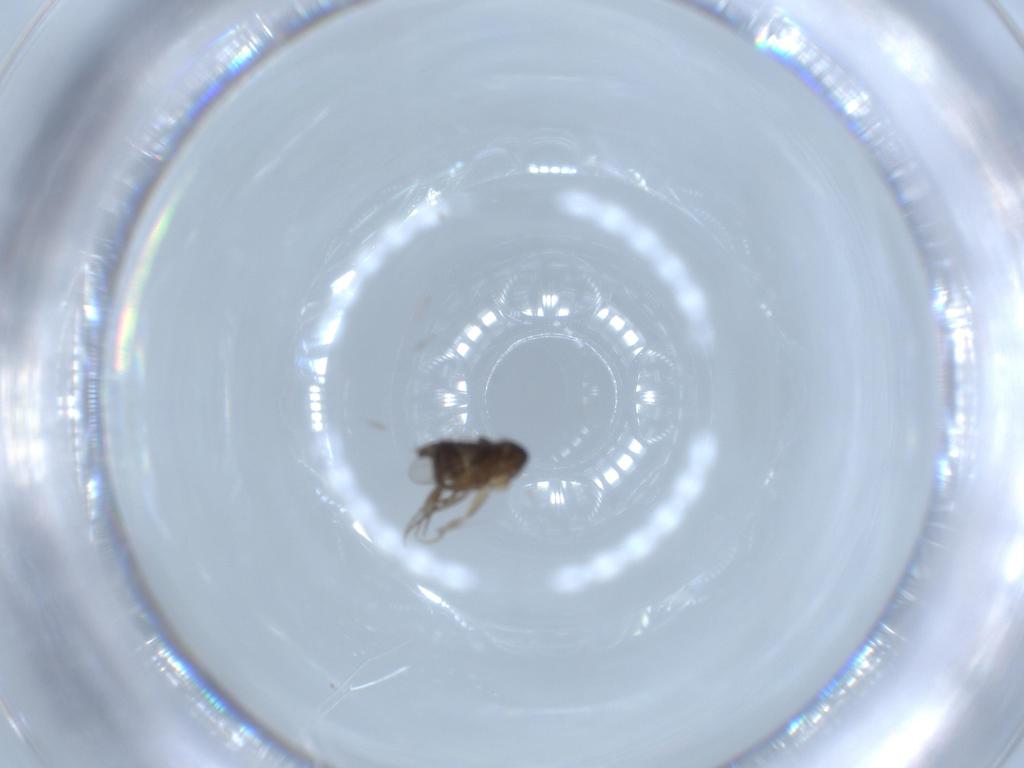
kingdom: Animalia
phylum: Arthropoda
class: Insecta
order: Diptera
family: Phoridae
